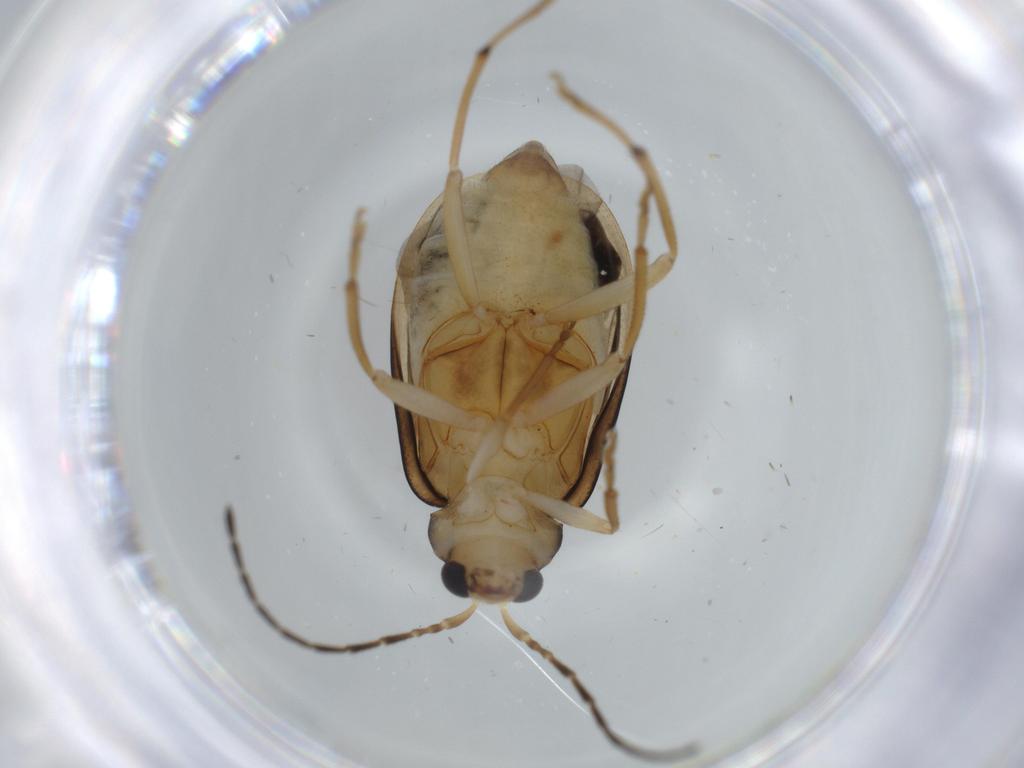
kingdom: Animalia
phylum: Arthropoda
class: Insecta
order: Coleoptera
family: Chrysomelidae
